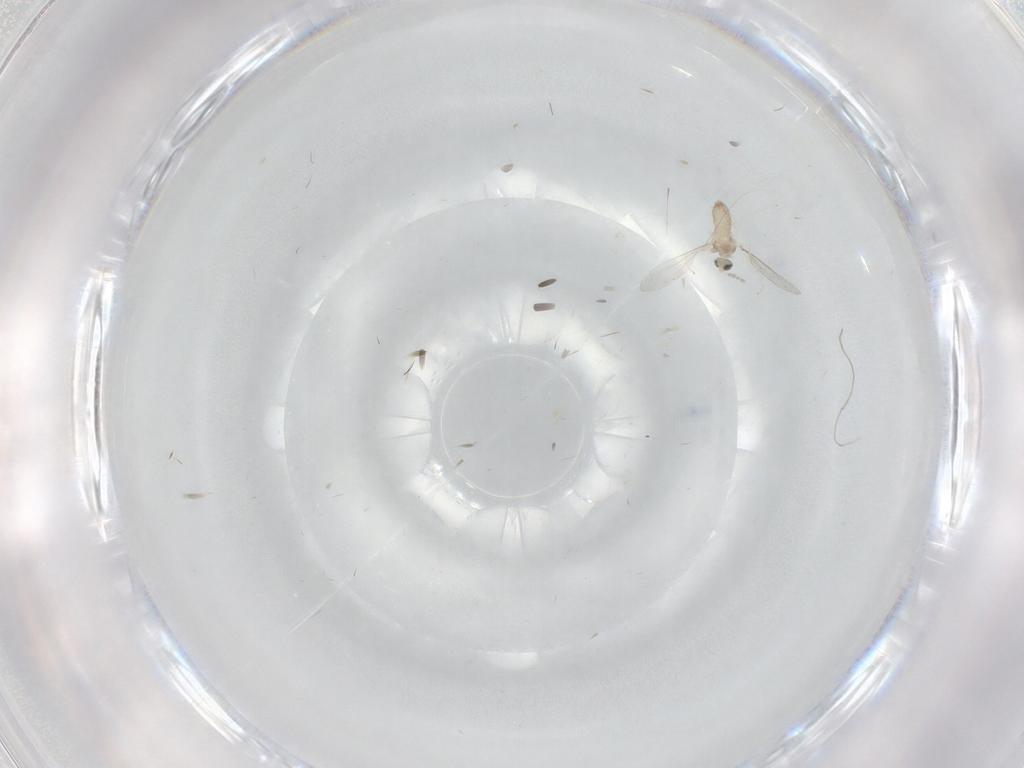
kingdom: Animalia
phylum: Arthropoda
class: Insecta
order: Diptera
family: Cecidomyiidae
